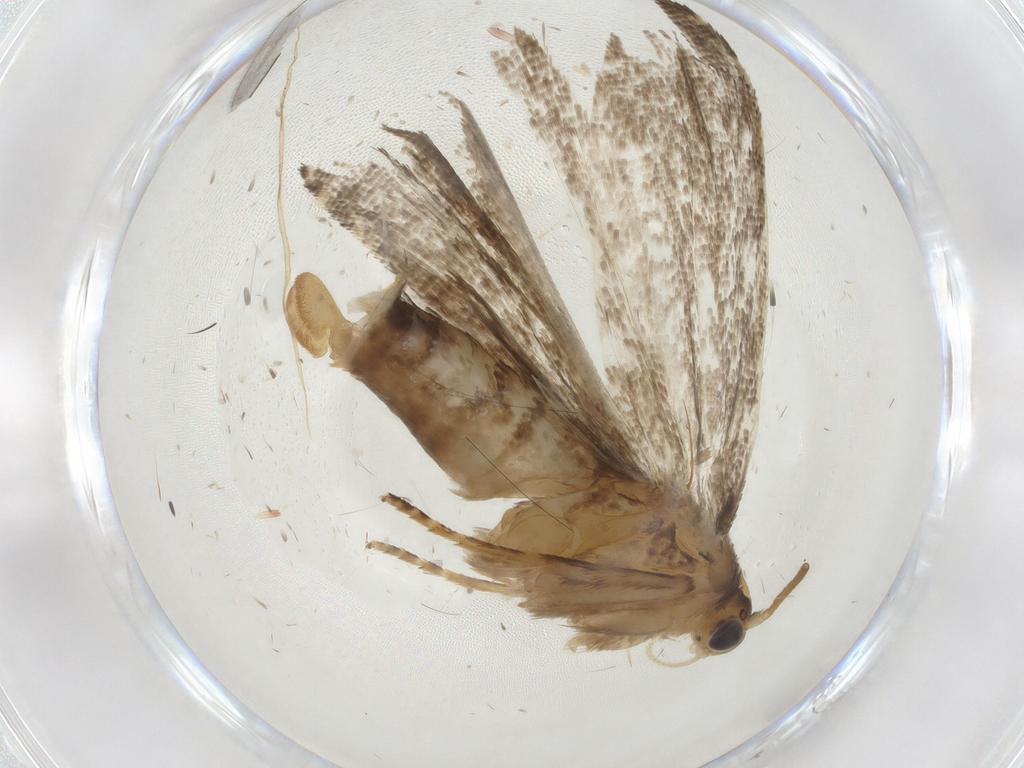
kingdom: Animalia
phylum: Arthropoda
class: Insecta
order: Lepidoptera
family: Tortricidae
